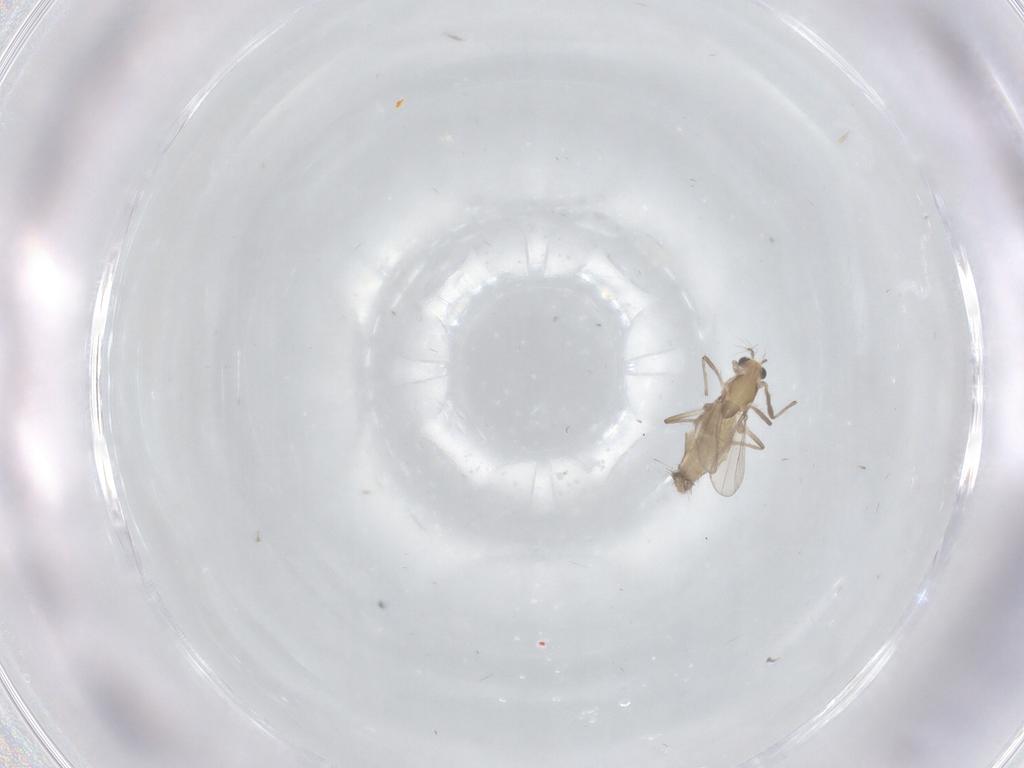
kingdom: Animalia
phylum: Arthropoda
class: Insecta
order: Diptera
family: Chironomidae
